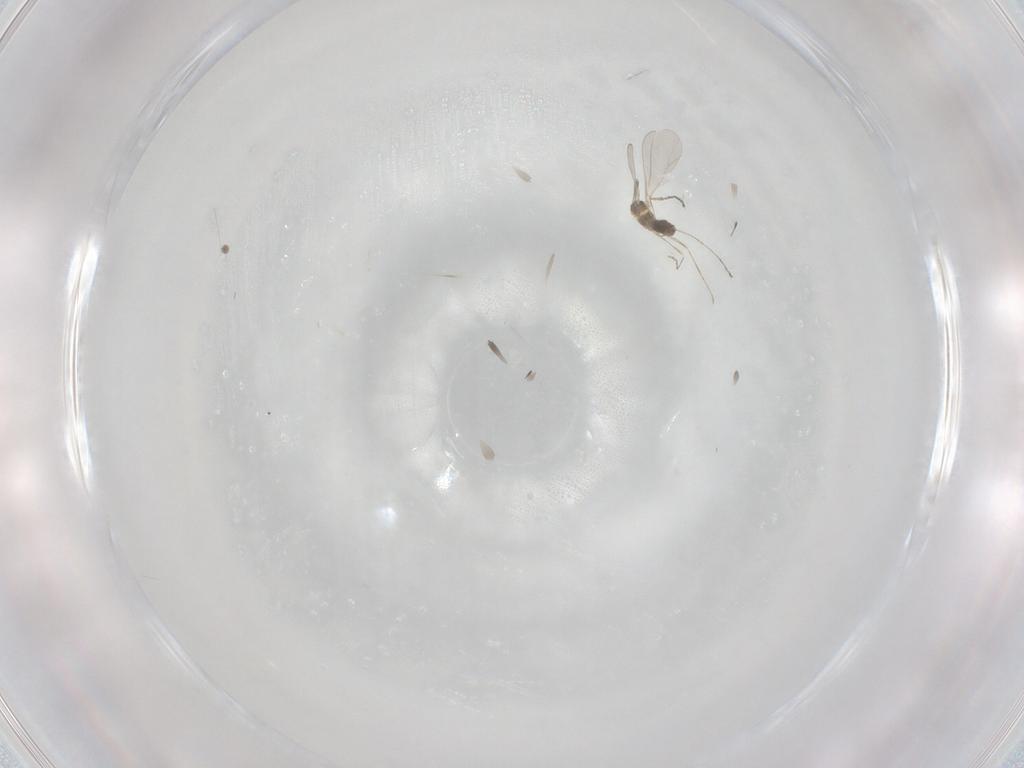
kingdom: Animalia
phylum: Arthropoda
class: Insecta
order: Diptera
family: Cecidomyiidae
